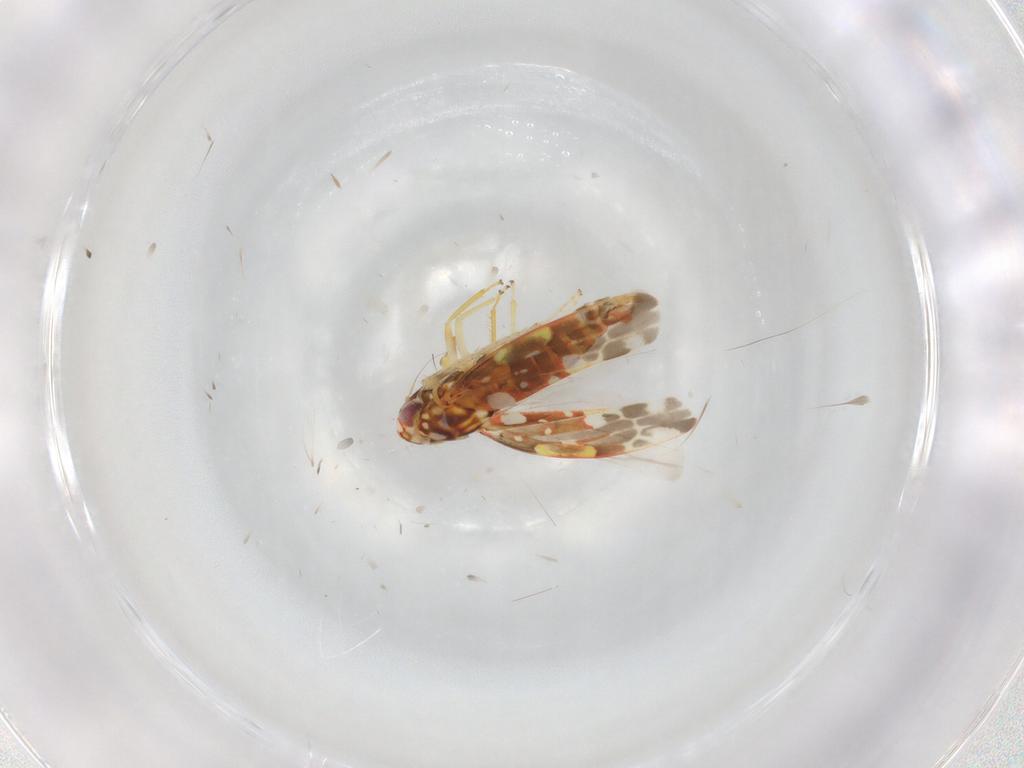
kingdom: Animalia
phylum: Arthropoda
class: Insecta
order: Hemiptera
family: Cicadellidae
